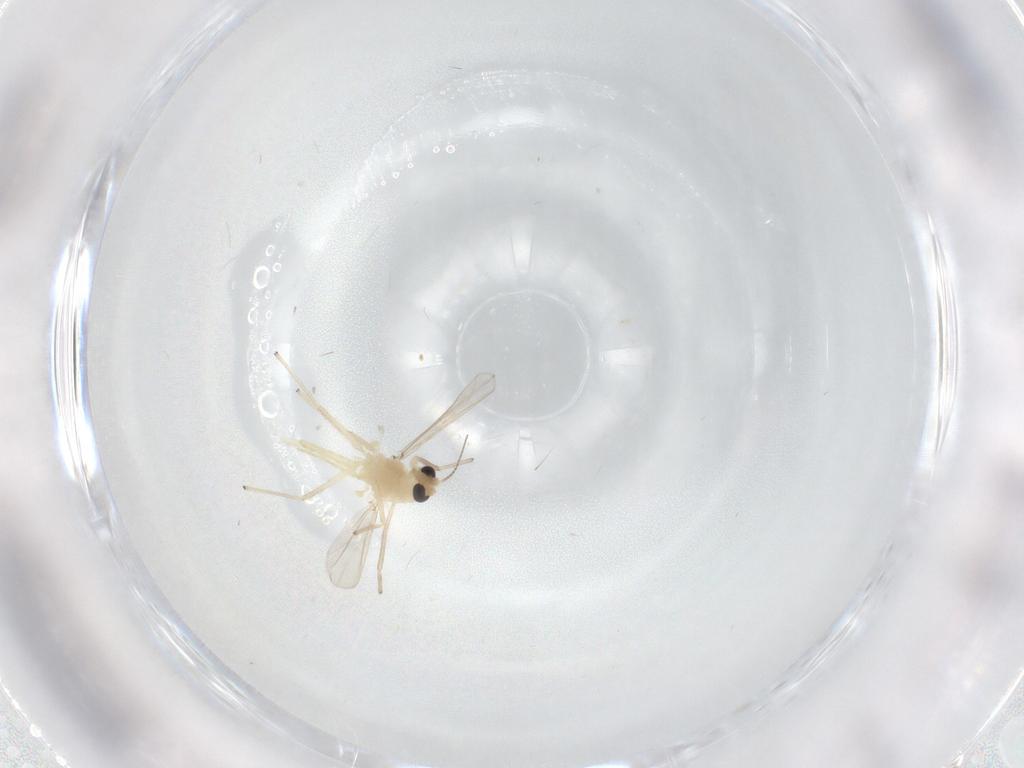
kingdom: Animalia
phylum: Arthropoda
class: Insecta
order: Diptera
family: Chironomidae
